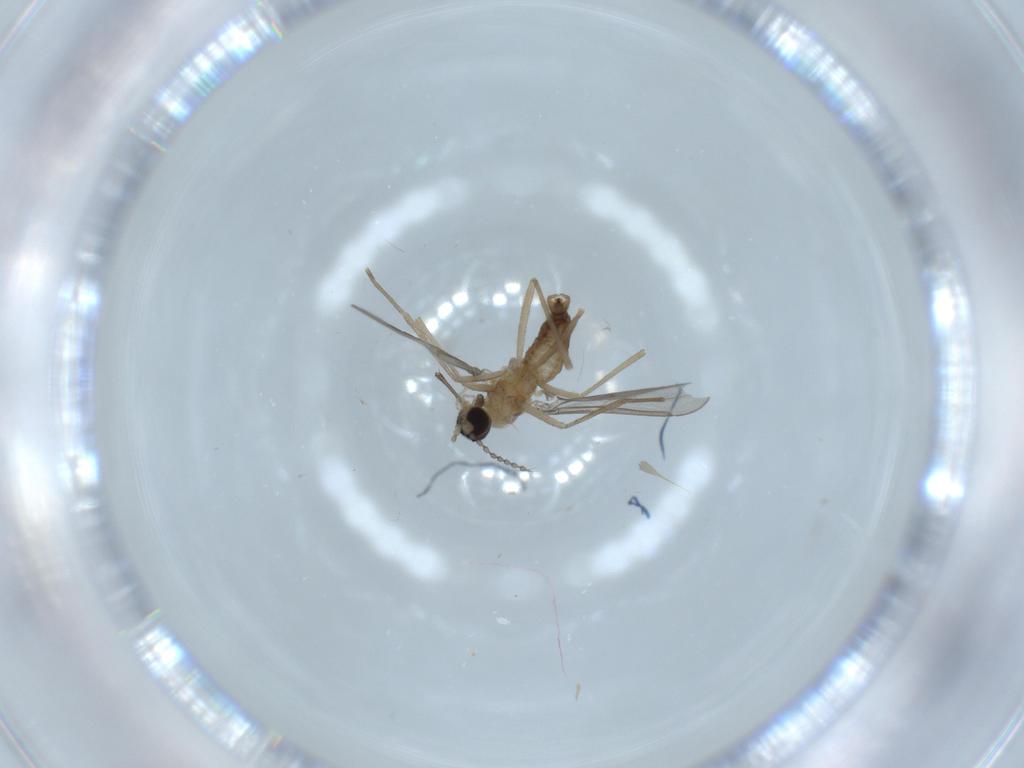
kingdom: Animalia
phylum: Arthropoda
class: Insecta
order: Diptera
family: Sciaridae
